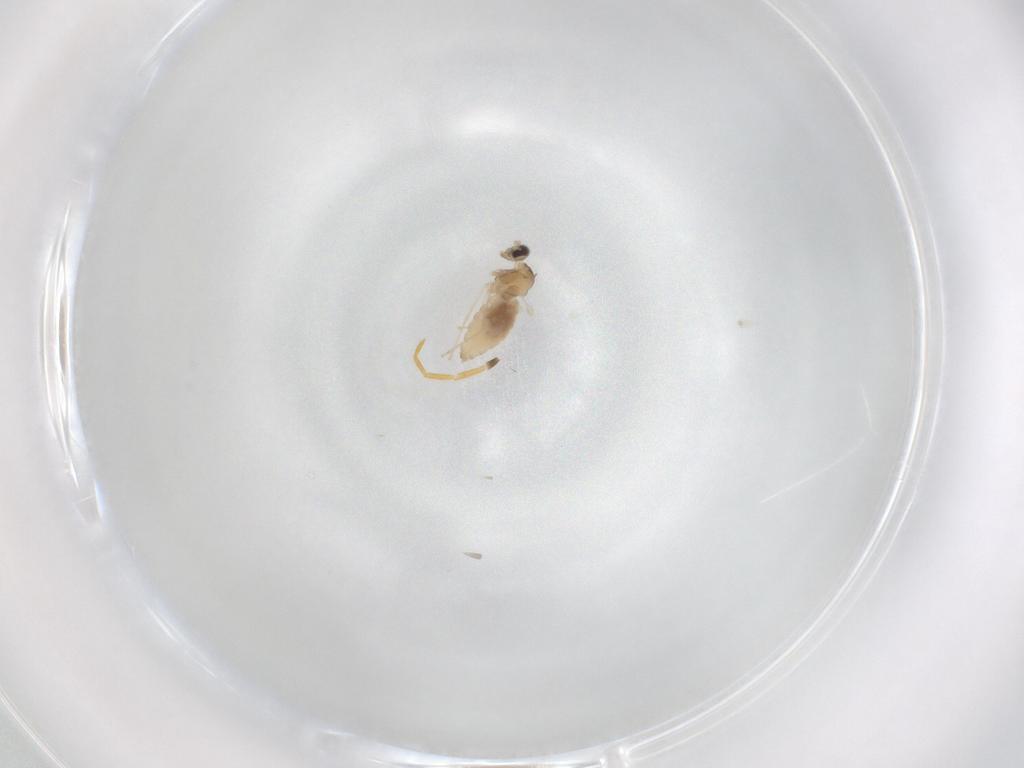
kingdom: Animalia
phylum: Arthropoda
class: Insecta
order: Diptera
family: Cecidomyiidae
